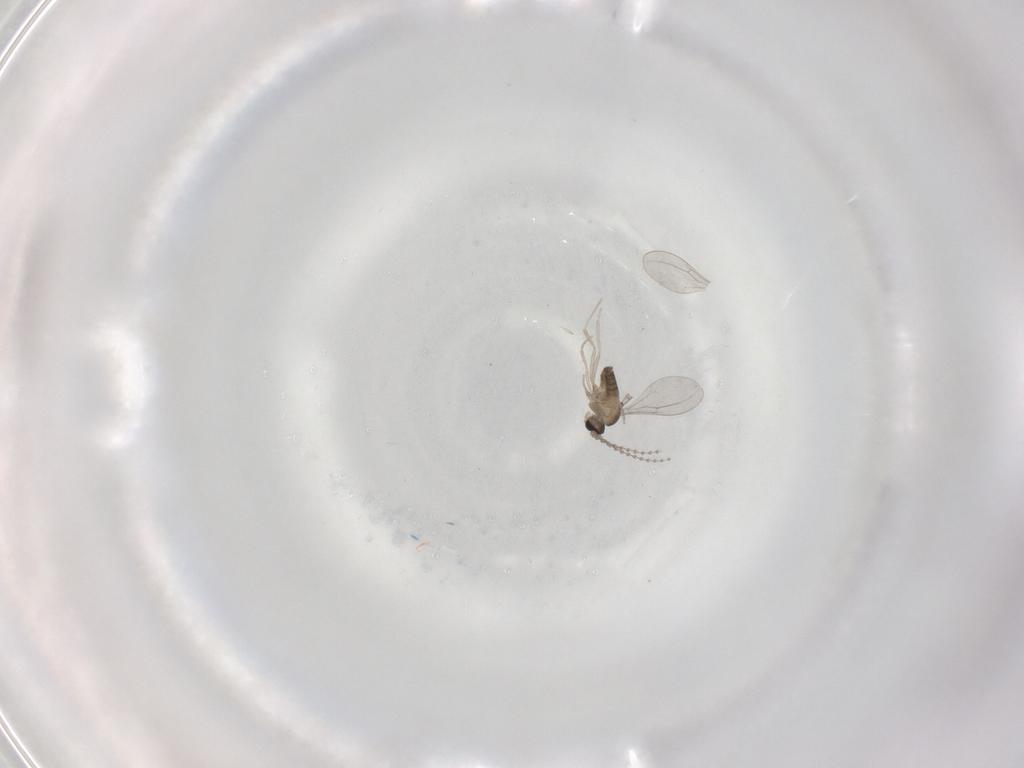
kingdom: Animalia
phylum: Arthropoda
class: Insecta
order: Diptera
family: Cecidomyiidae
